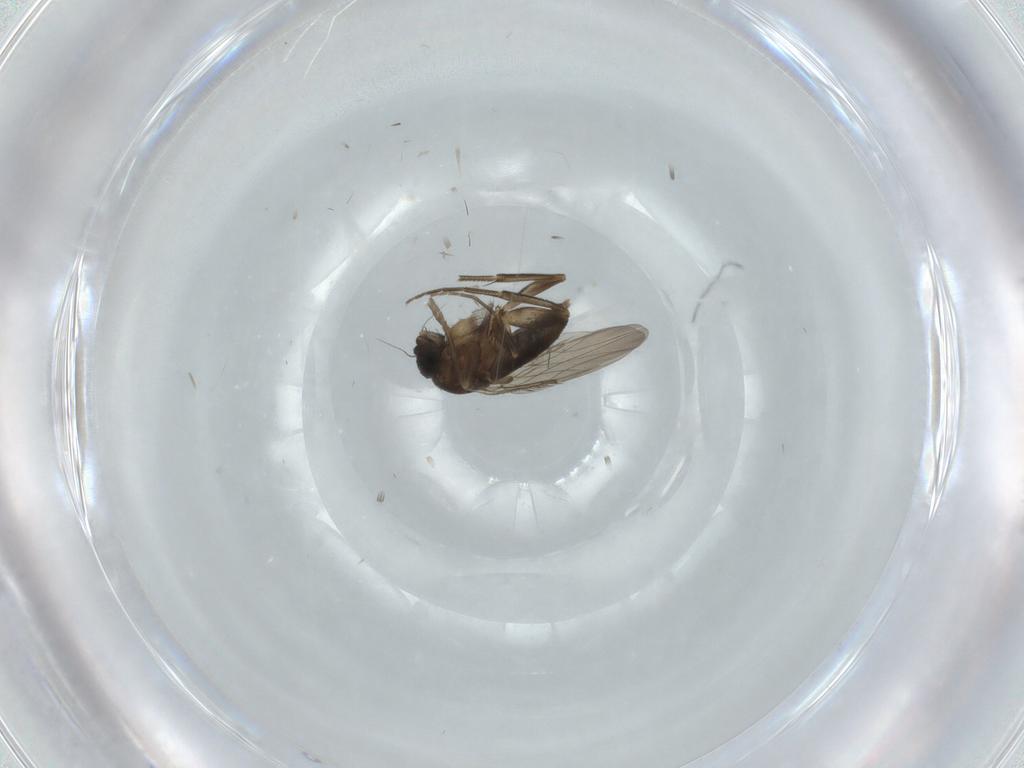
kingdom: Animalia
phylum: Arthropoda
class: Insecta
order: Diptera
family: Phoridae
